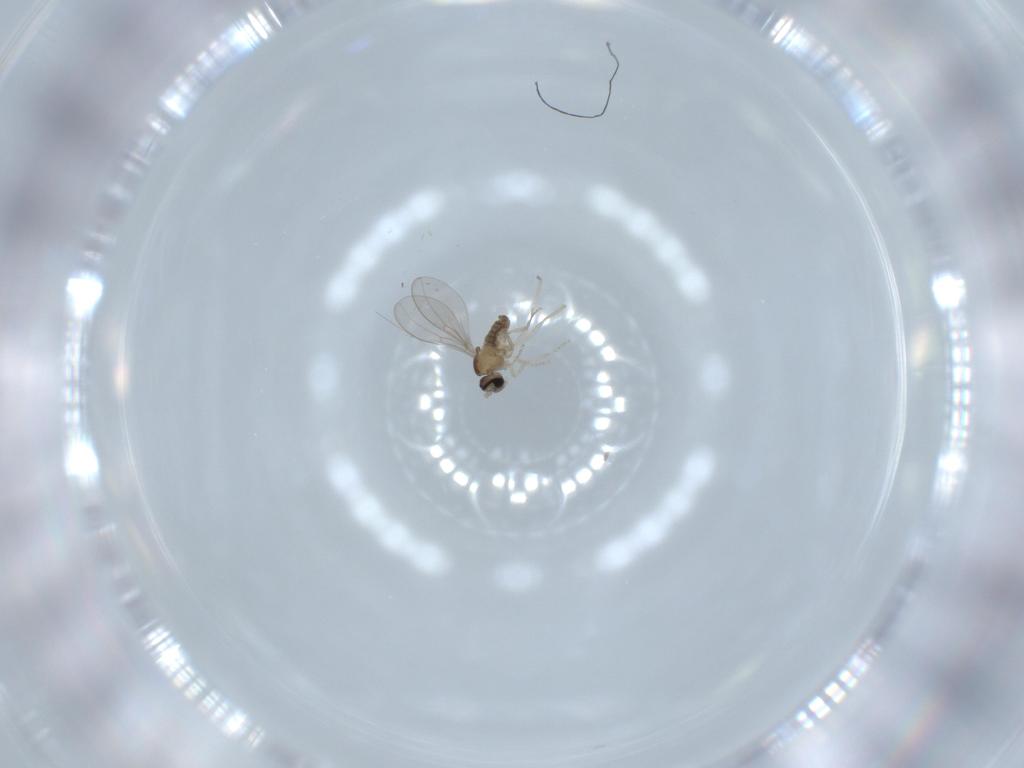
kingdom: Animalia
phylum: Arthropoda
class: Insecta
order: Diptera
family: Cecidomyiidae
